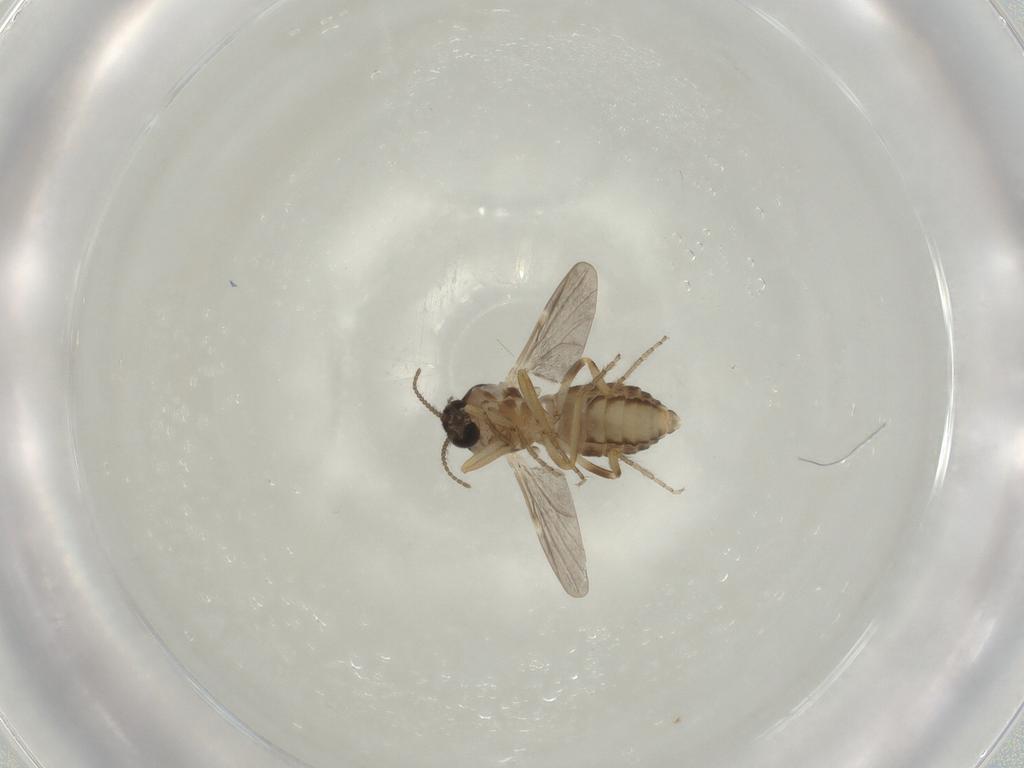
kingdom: Animalia
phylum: Arthropoda
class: Insecta
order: Diptera
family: Ceratopogonidae
